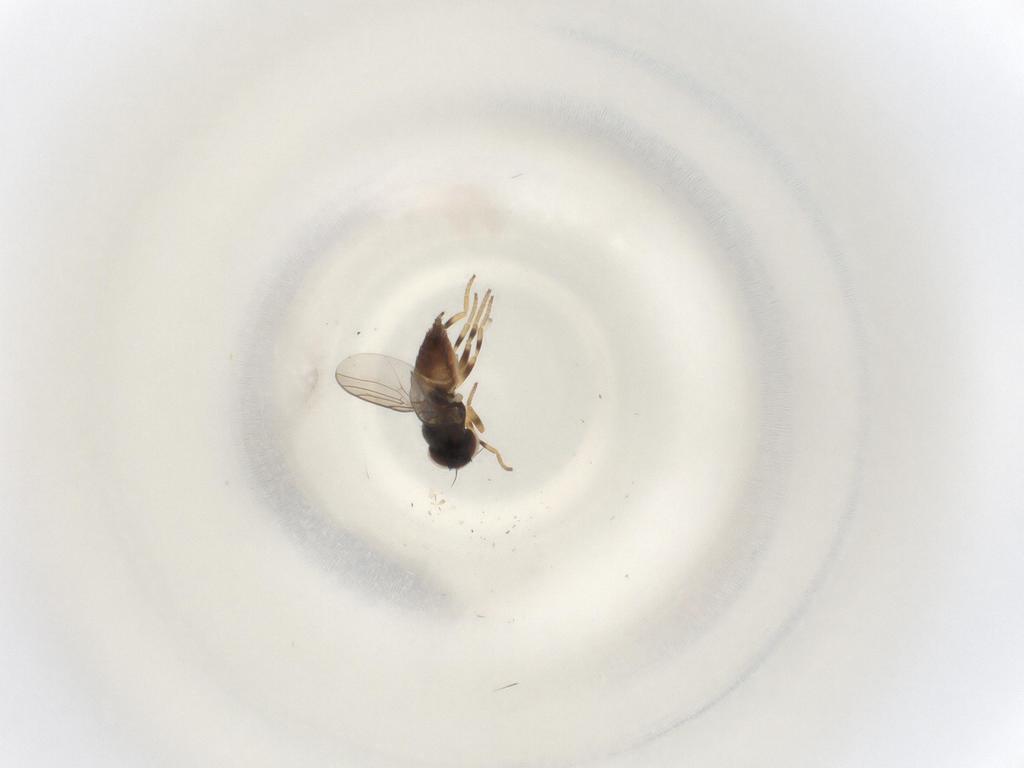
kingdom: Animalia
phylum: Arthropoda
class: Insecta
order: Diptera
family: Chloropidae
